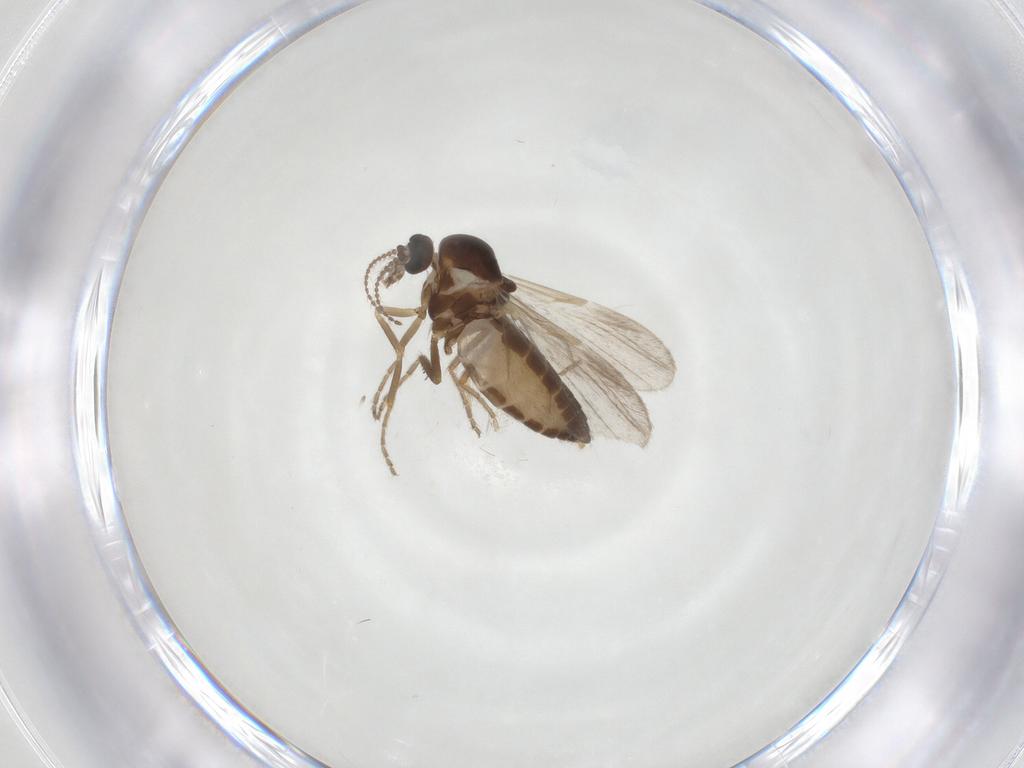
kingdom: Animalia
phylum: Arthropoda
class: Insecta
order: Diptera
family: Ceratopogonidae
